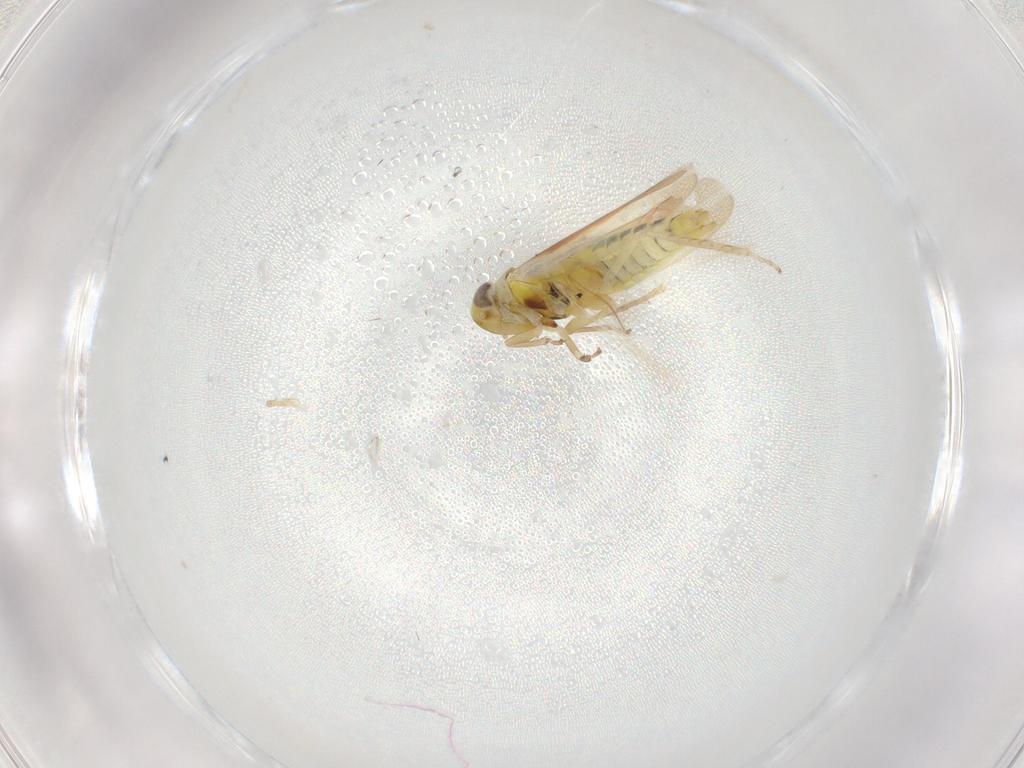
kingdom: Animalia
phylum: Arthropoda
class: Insecta
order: Hemiptera
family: Cicadellidae
